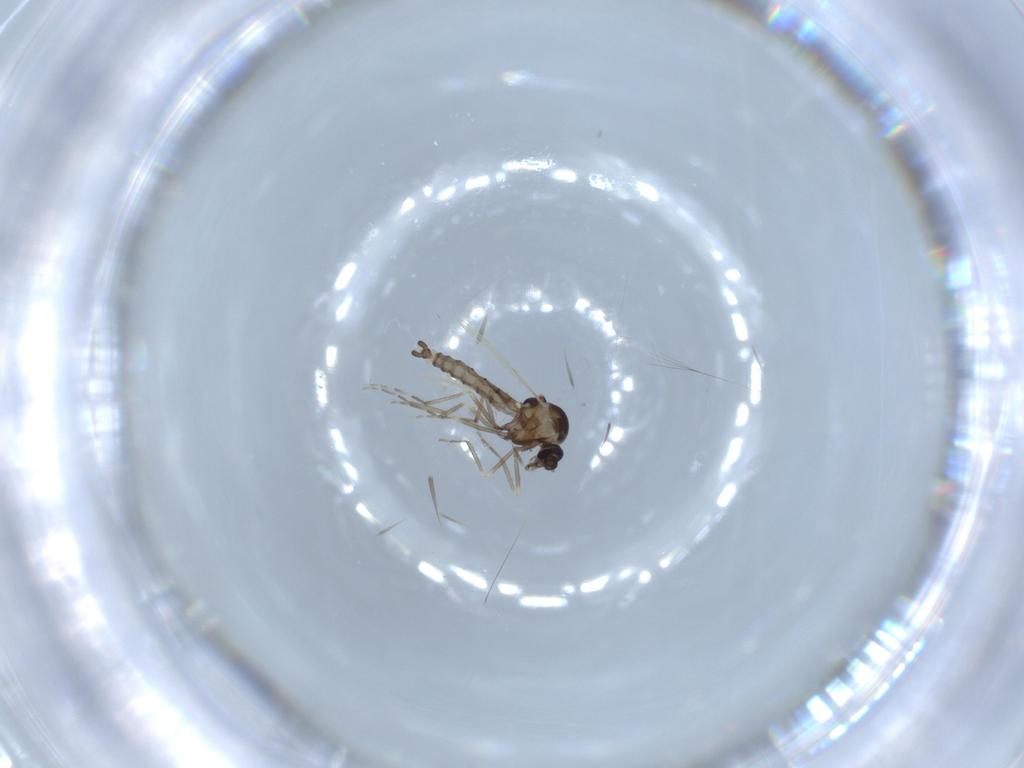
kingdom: Animalia
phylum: Arthropoda
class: Insecta
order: Diptera
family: Ceratopogonidae
